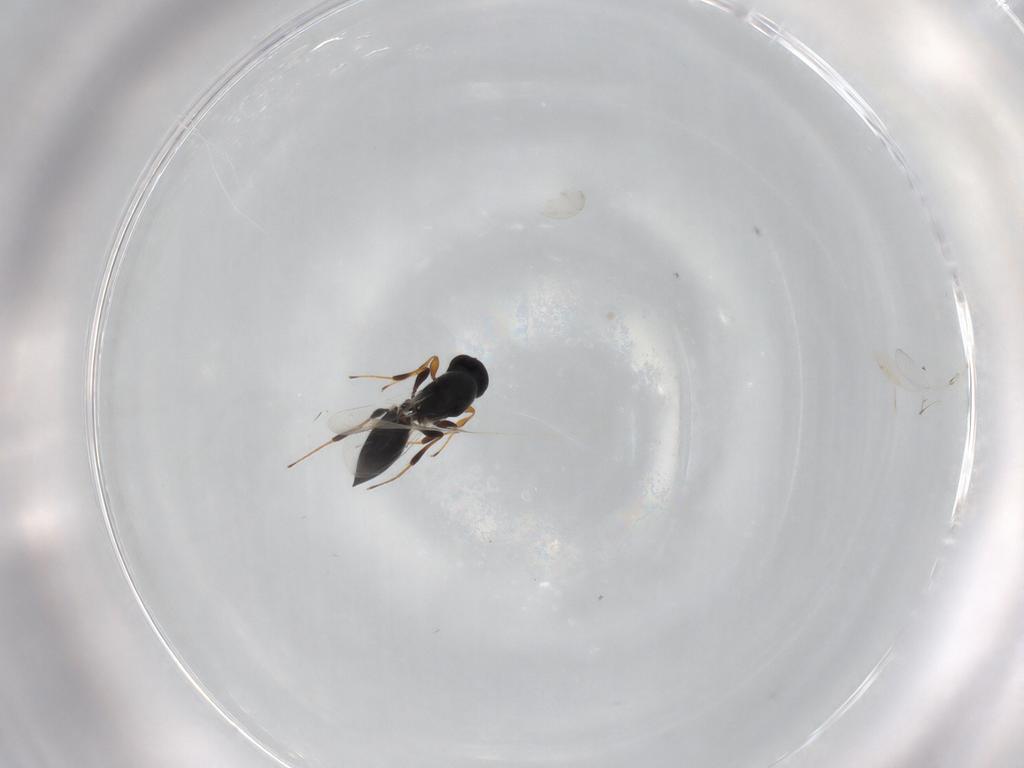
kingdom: Animalia
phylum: Arthropoda
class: Insecta
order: Hymenoptera
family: Platygastridae
